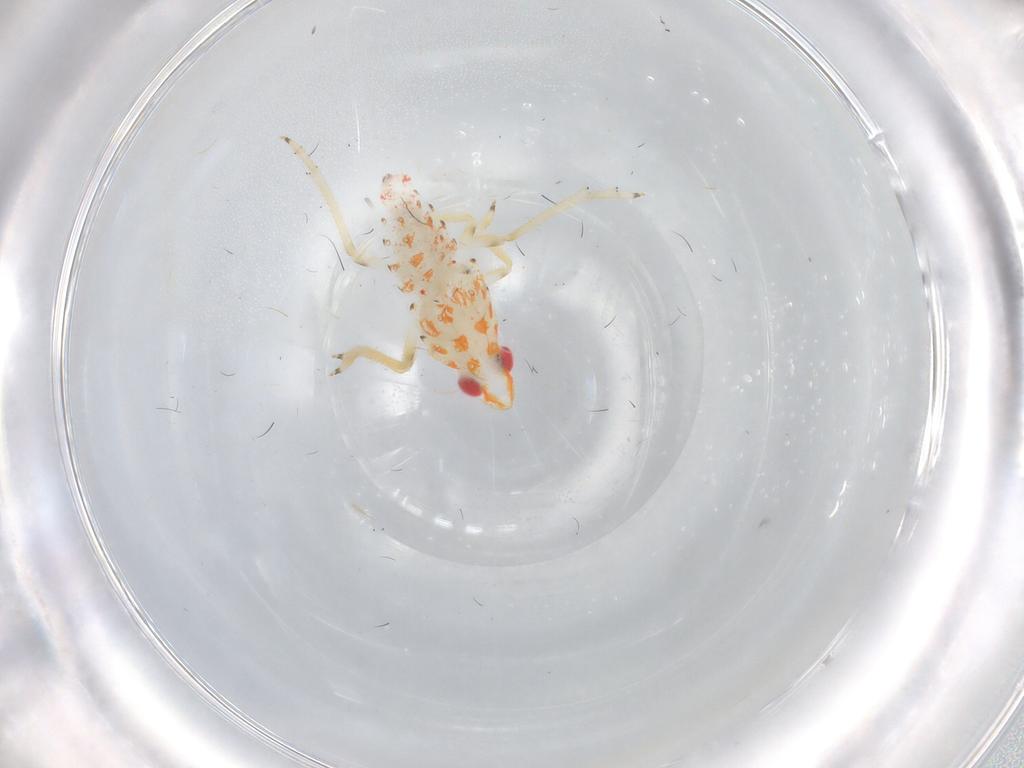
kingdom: Animalia
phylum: Arthropoda
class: Insecta
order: Hemiptera
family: Tropiduchidae
